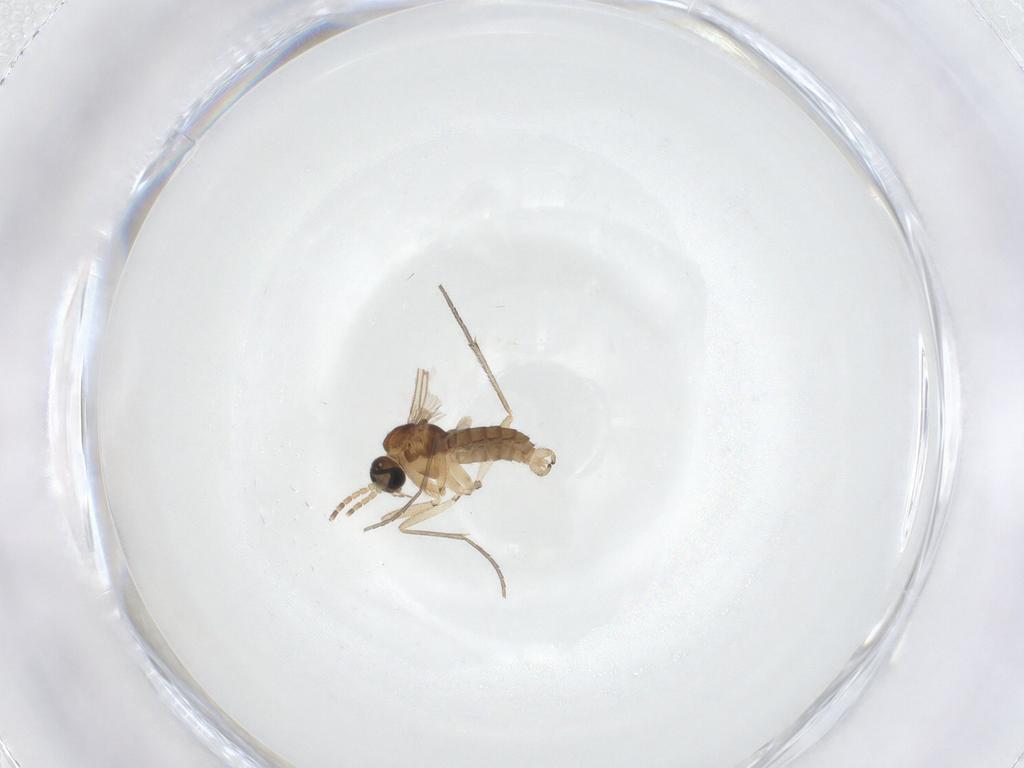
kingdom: Animalia
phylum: Arthropoda
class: Insecta
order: Diptera
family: Sciaridae
